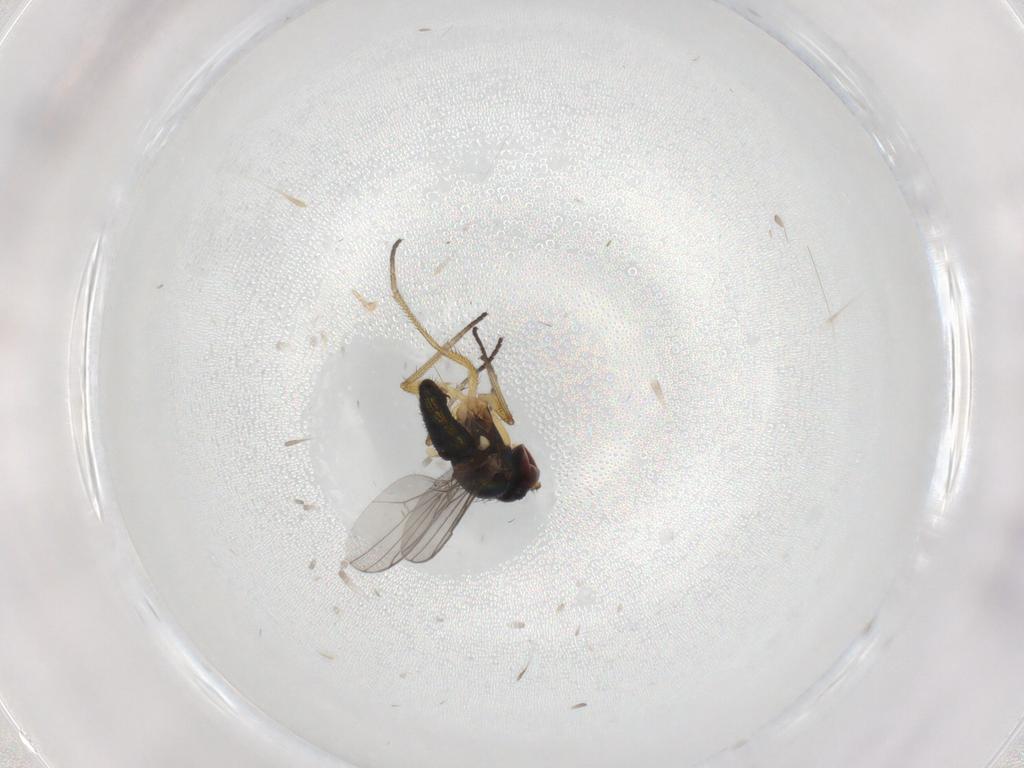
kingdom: Animalia
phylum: Arthropoda
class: Insecta
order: Diptera
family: Dolichopodidae
